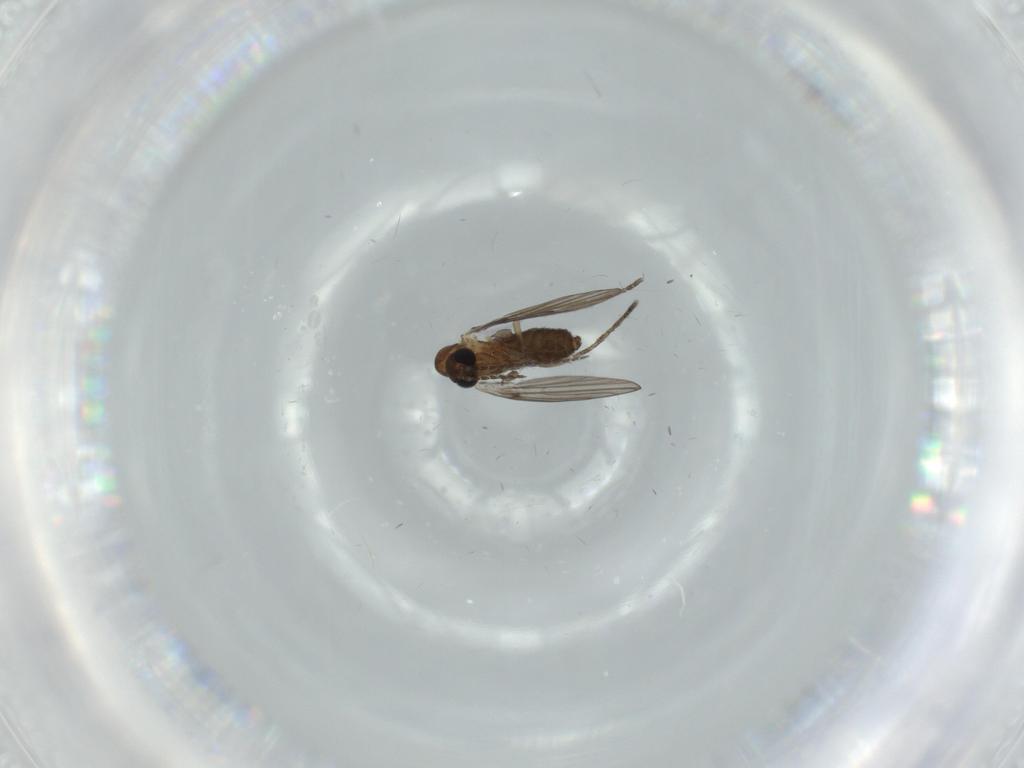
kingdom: Animalia
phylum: Arthropoda
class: Insecta
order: Diptera
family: Psychodidae
